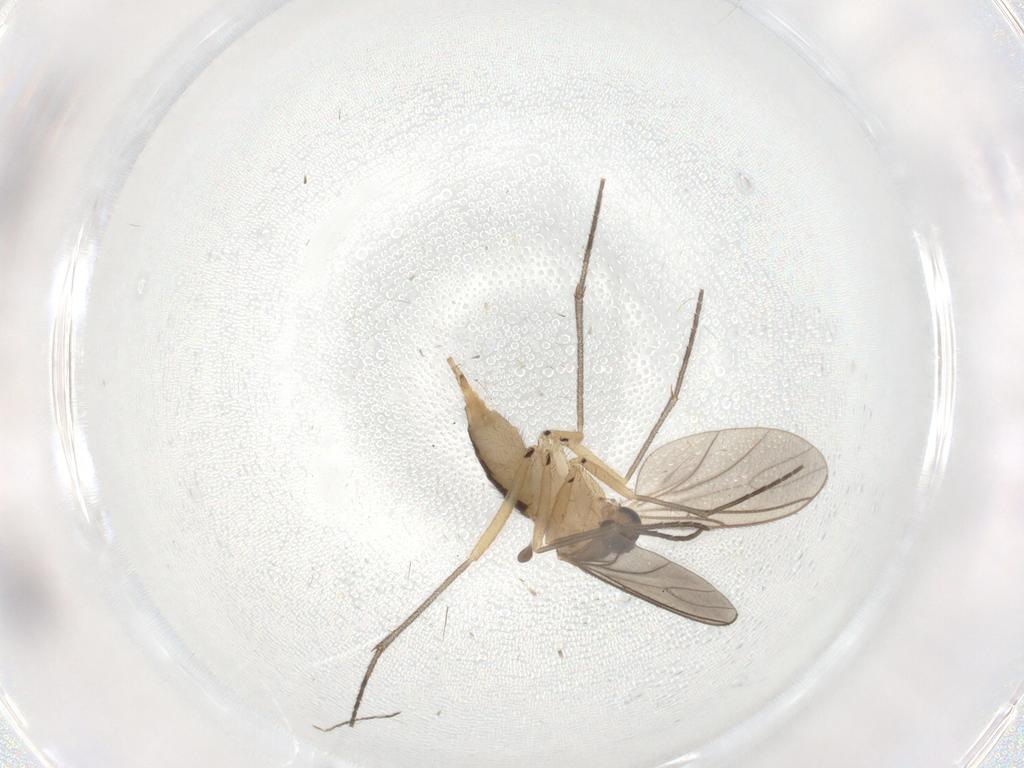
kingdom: Animalia
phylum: Arthropoda
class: Insecta
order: Diptera
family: Sciaridae
